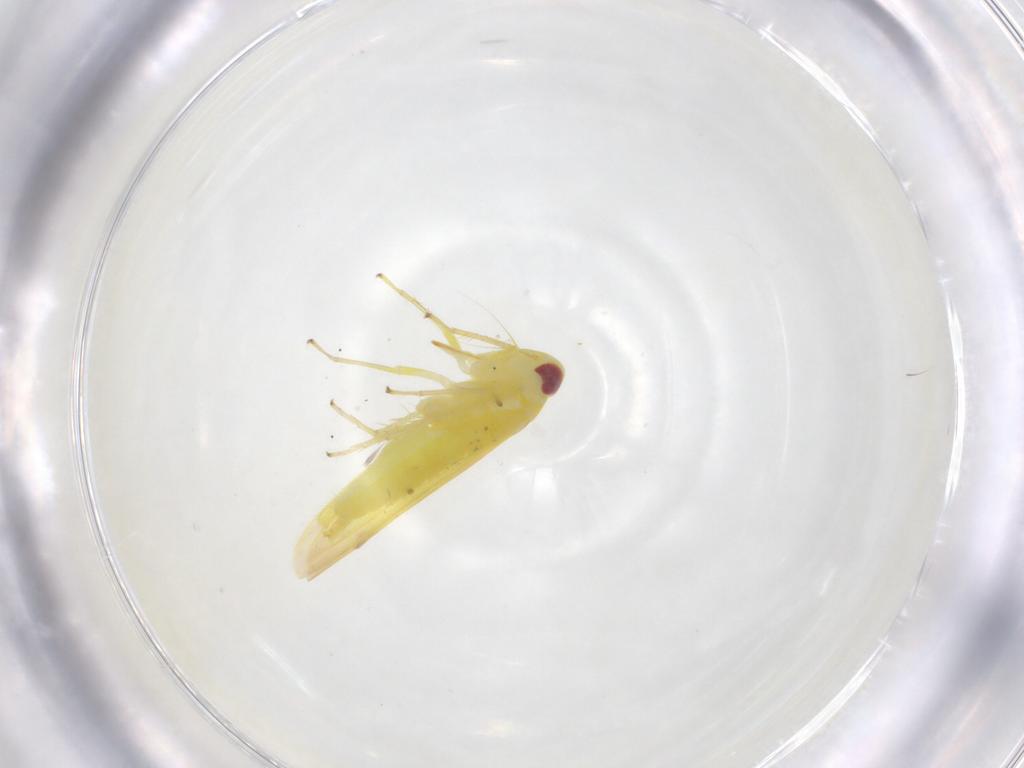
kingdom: Animalia
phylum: Arthropoda
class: Insecta
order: Hemiptera
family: Cicadellidae
